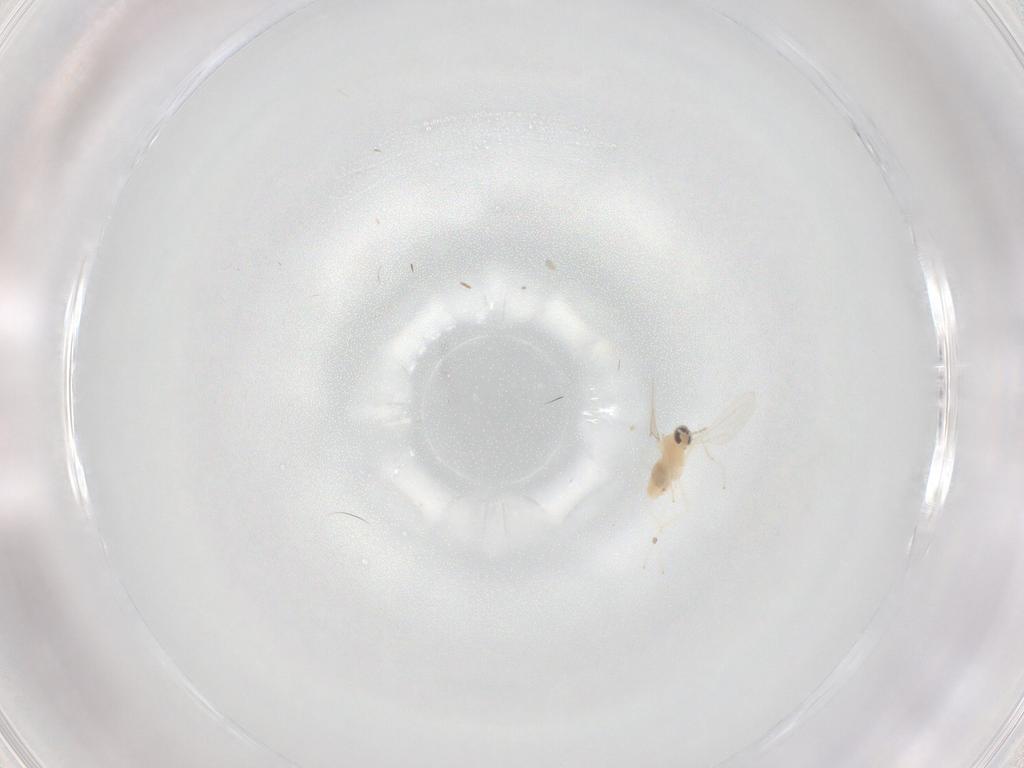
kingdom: Animalia
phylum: Arthropoda
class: Insecta
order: Diptera
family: Cecidomyiidae
